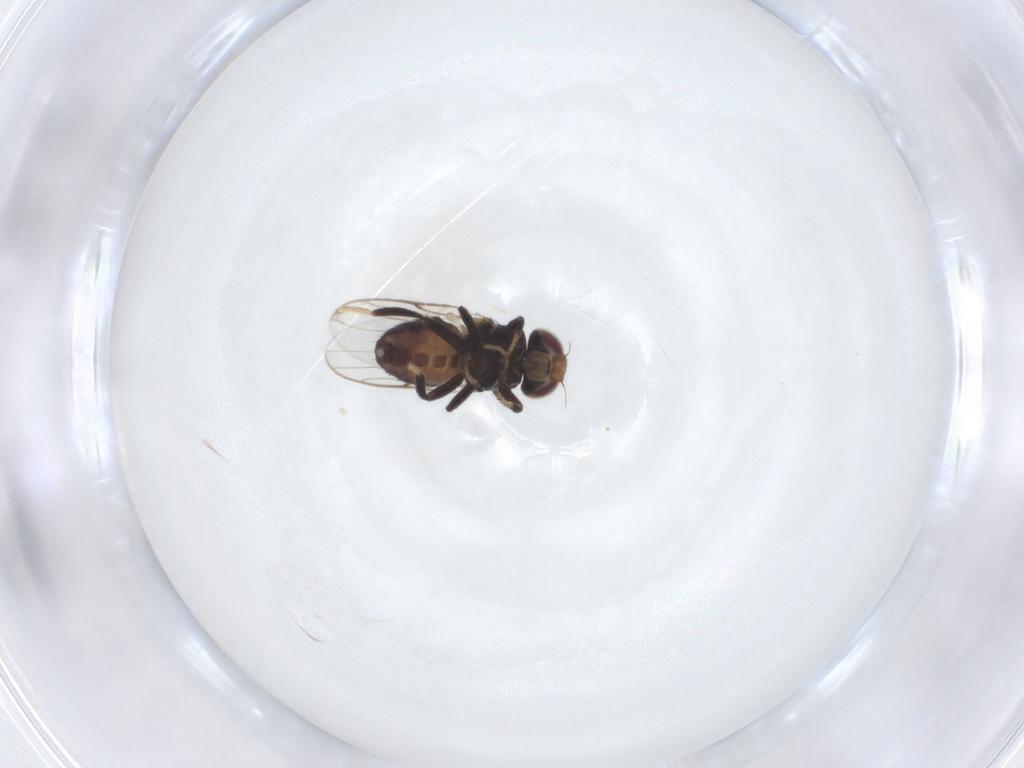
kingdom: Animalia
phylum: Arthropoda
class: Insecta
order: Diptera
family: Chloropidae
